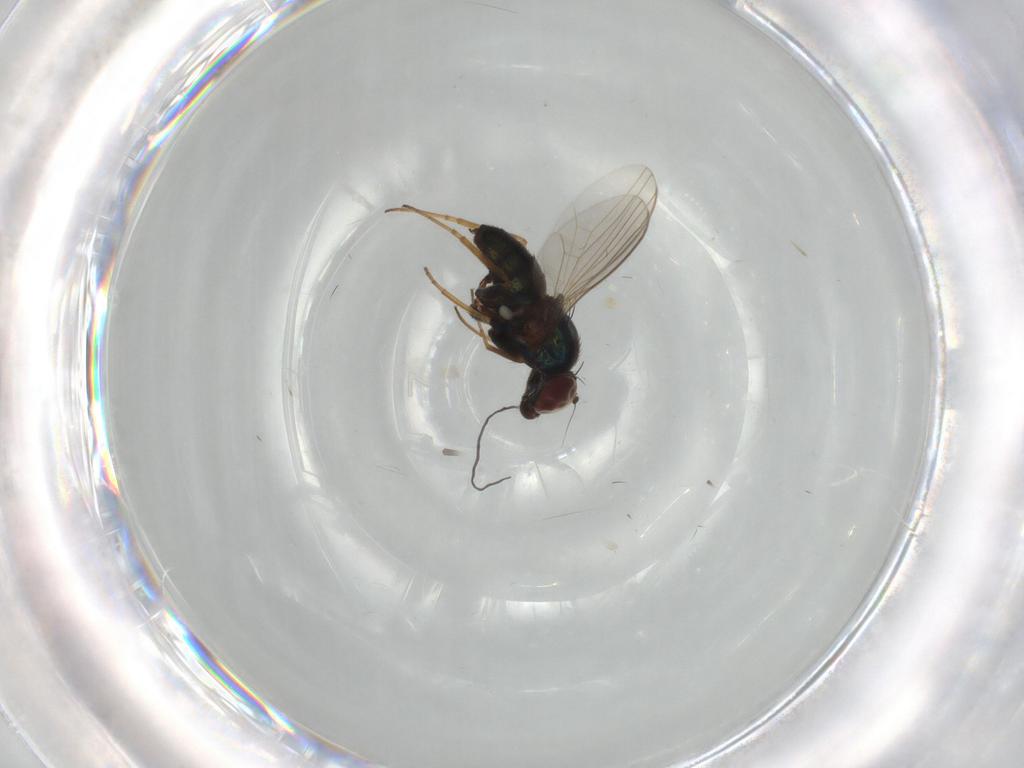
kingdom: Animalia
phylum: Arthropoda
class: Insecta
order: Diptera
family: Dolichopodidae
